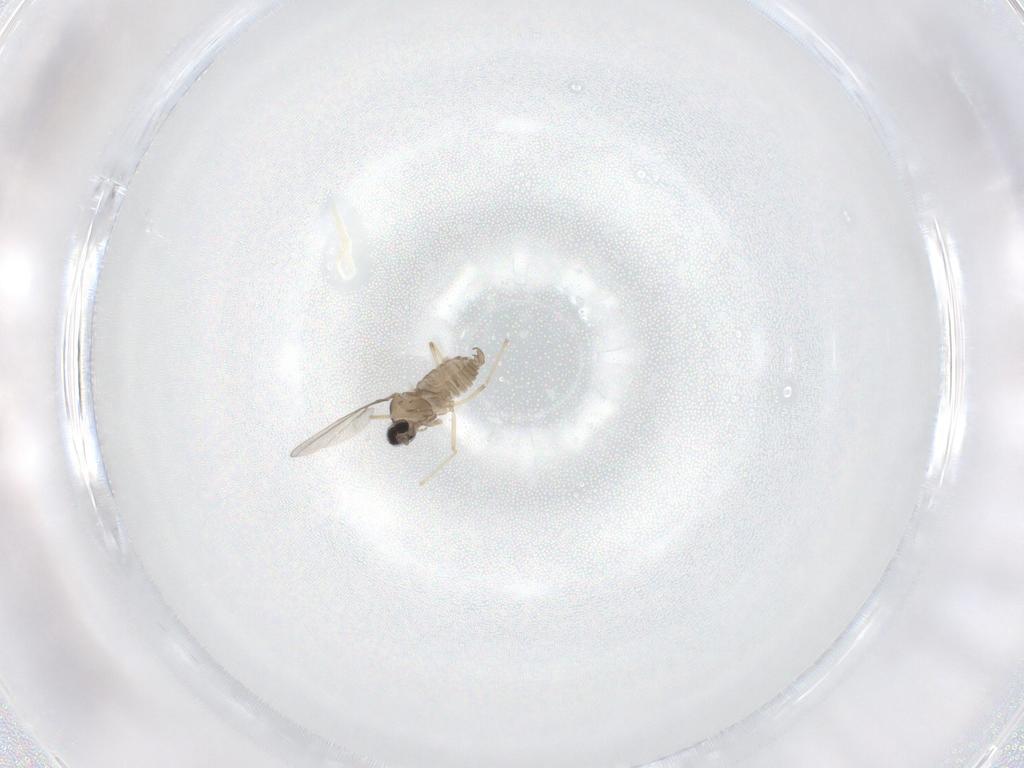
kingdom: Animalia
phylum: Arthropoda
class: Insecta
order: Diptera
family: Cecidomyiidae
